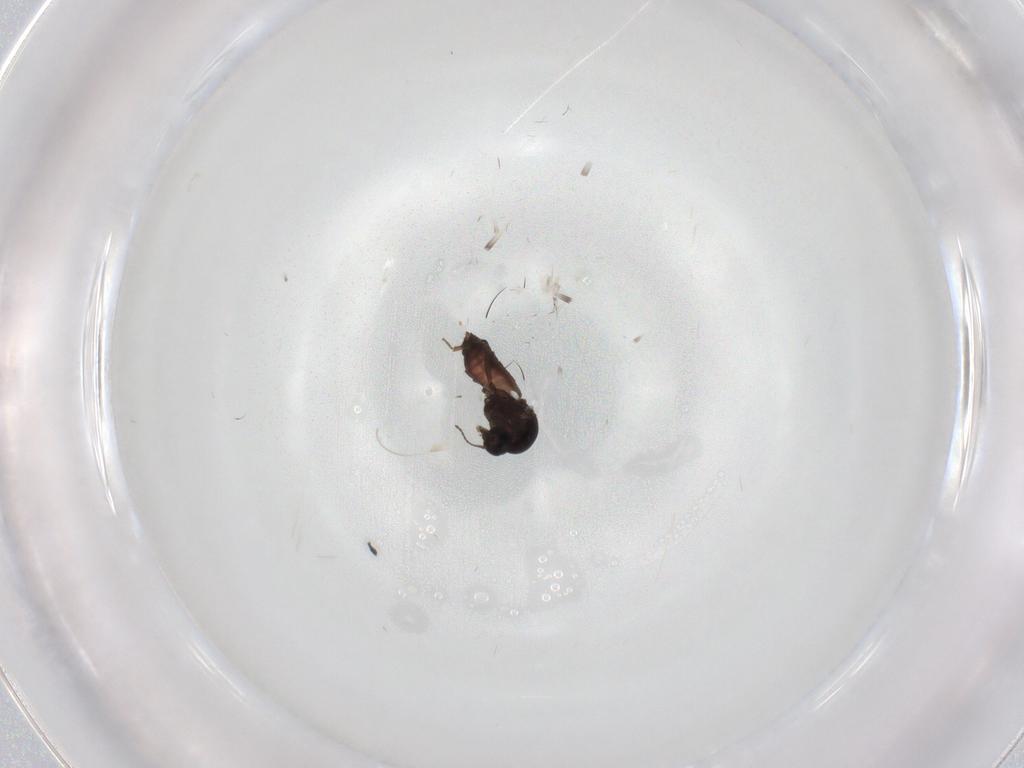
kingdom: Animalia
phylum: Arthropoda
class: Insecta
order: Diptera
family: Ceratopogonidae
